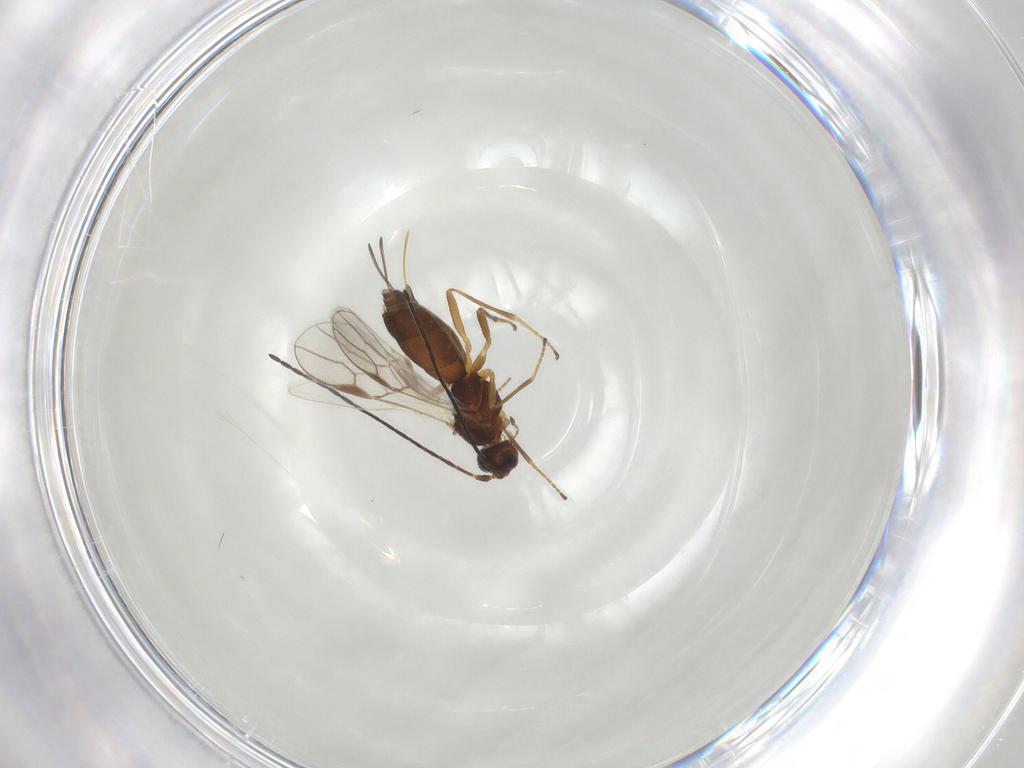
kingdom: Animalia
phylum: Arthropoda
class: Insecta
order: Hymenoptera
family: Braconidae
